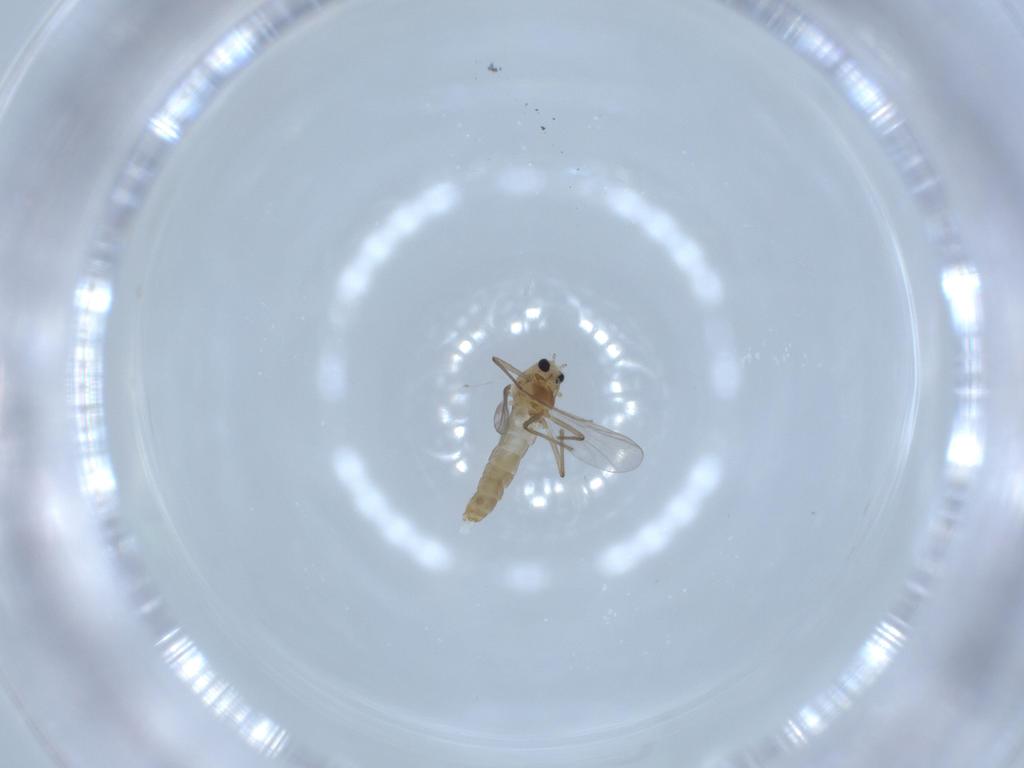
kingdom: Animalia
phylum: Arthropoda
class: Insecta
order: Diptera
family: Chironomidae
